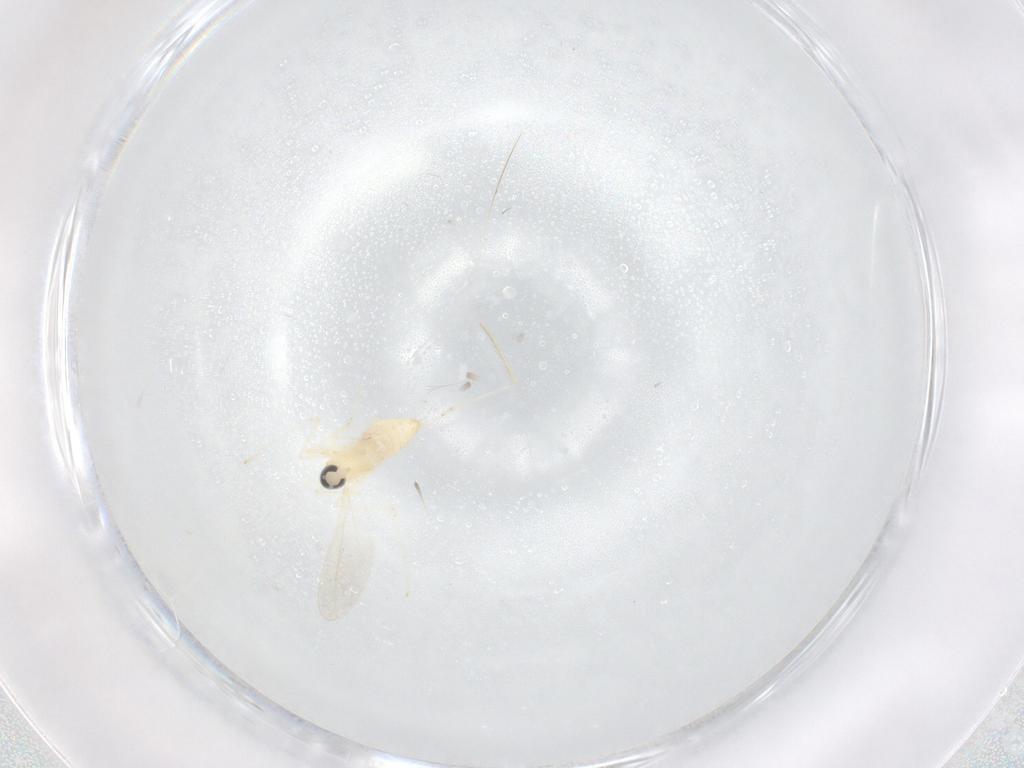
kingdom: Animalia
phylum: Arthropoda
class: Insecta
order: Diptera
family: Cecidomyiidae
